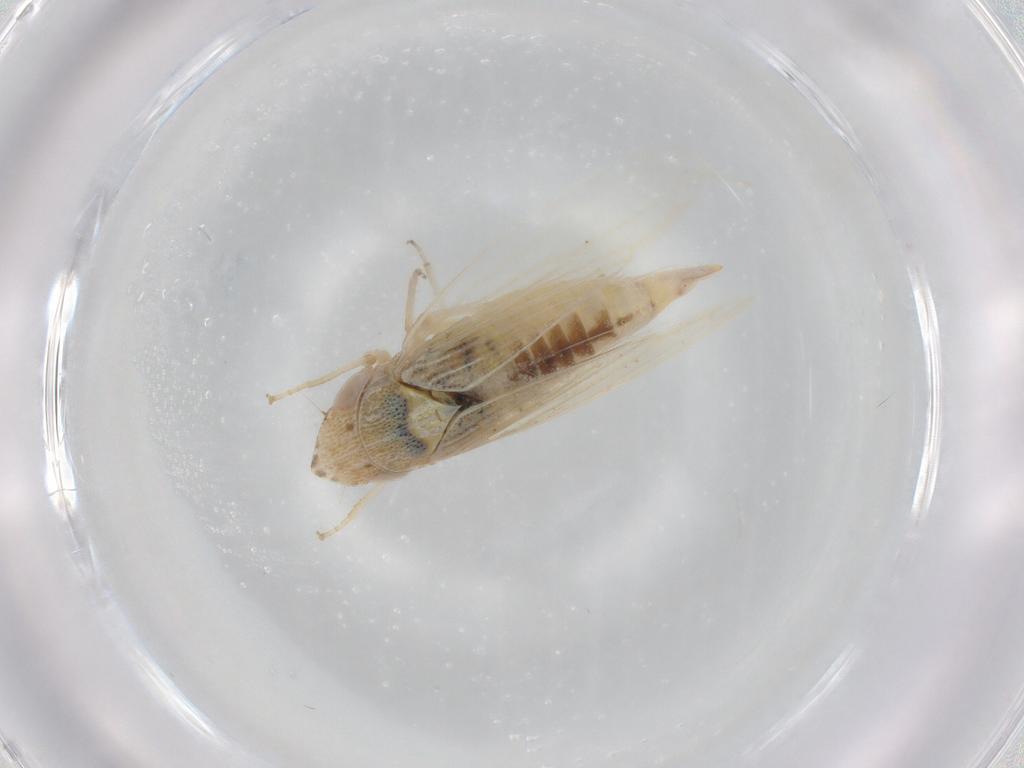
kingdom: Animalia
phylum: Arthropoda
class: Insecta
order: Hemiptera
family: Cicadellidae
